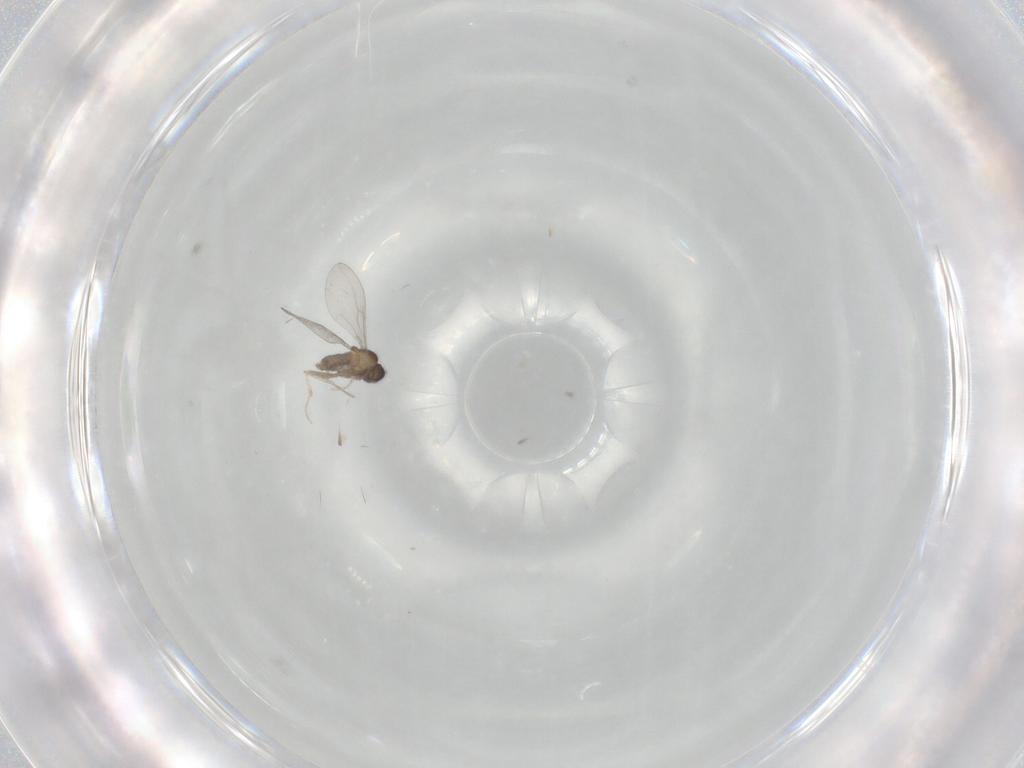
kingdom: Animalia
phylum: Arthropoda
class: Insecta
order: Diptera
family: Cecidomyiidae
